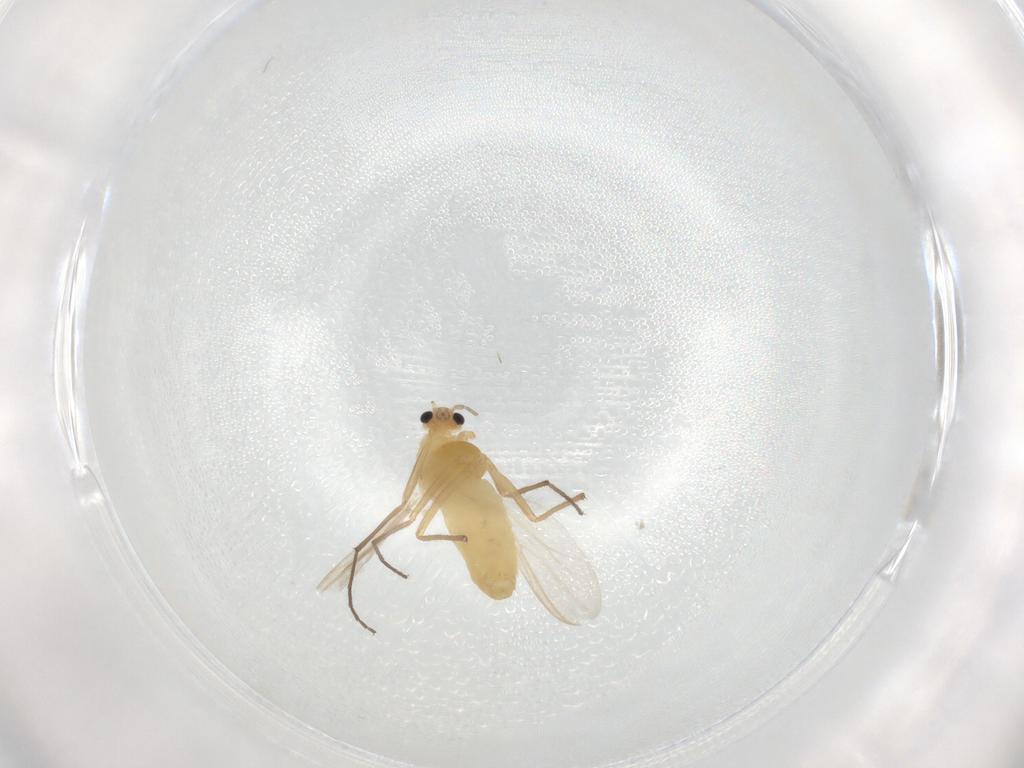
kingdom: Animalia
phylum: Arthropoda
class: Insecta
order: Diptera
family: Chironomidae
